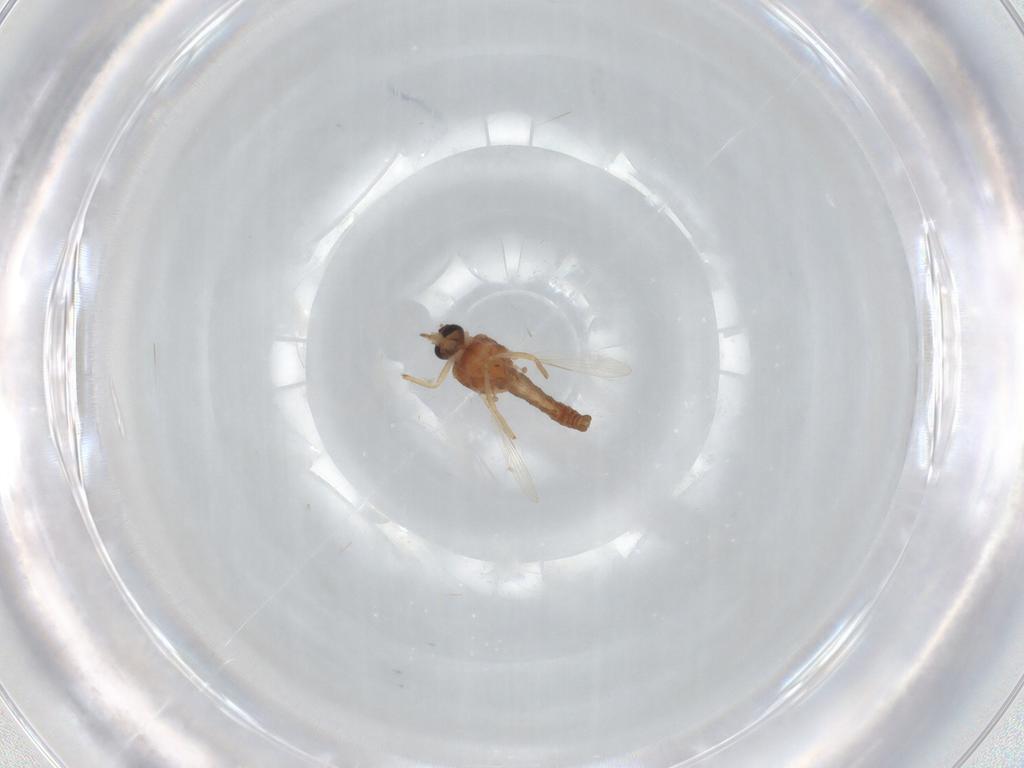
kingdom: Animalia
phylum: Arthropoda
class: Insecta
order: Diptera
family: Ceratopogonidae
